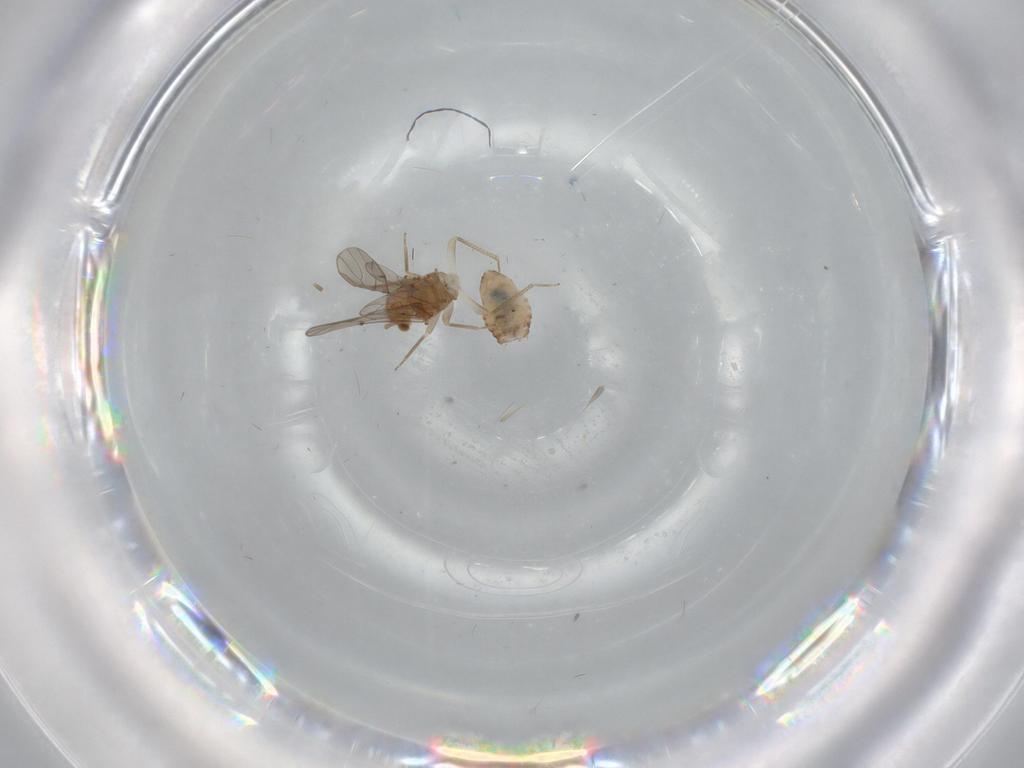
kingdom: Animalia
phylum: Arthropoda
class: Insecta
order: Psocodea
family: Ectopsocidae
